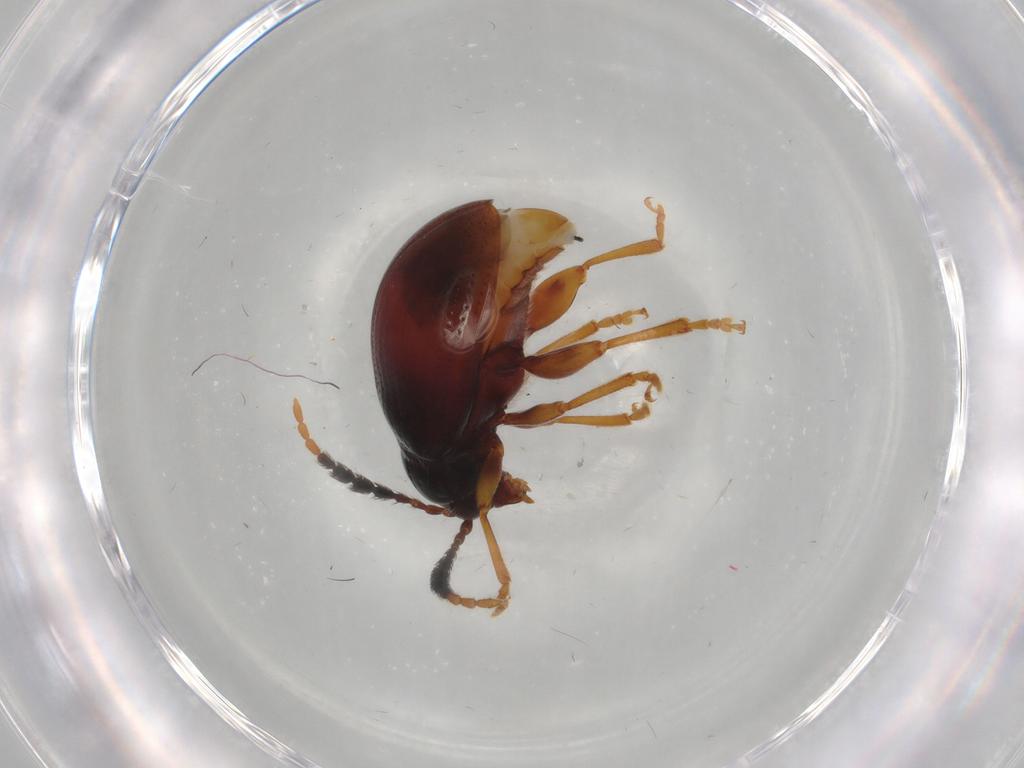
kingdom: Animalia
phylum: Arthropoda
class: Insecta
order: Coleoptera
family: Chrysomelidae
